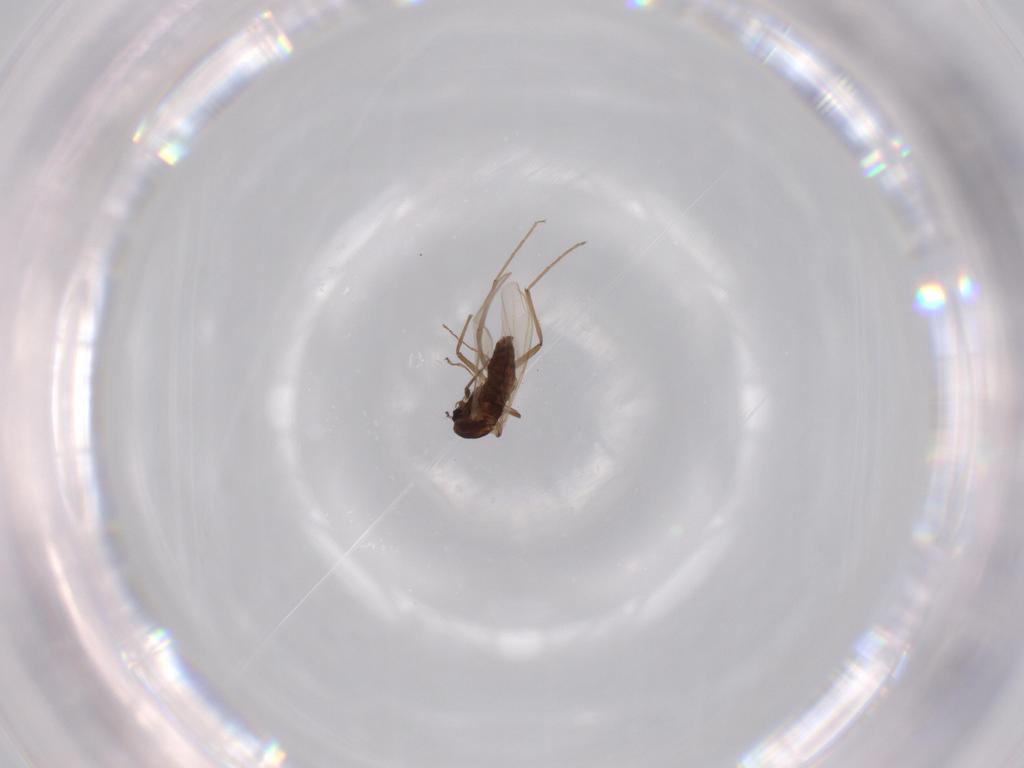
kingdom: Animalia
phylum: Arthropoda
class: Insecta
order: Diptera
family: Chironomidae
